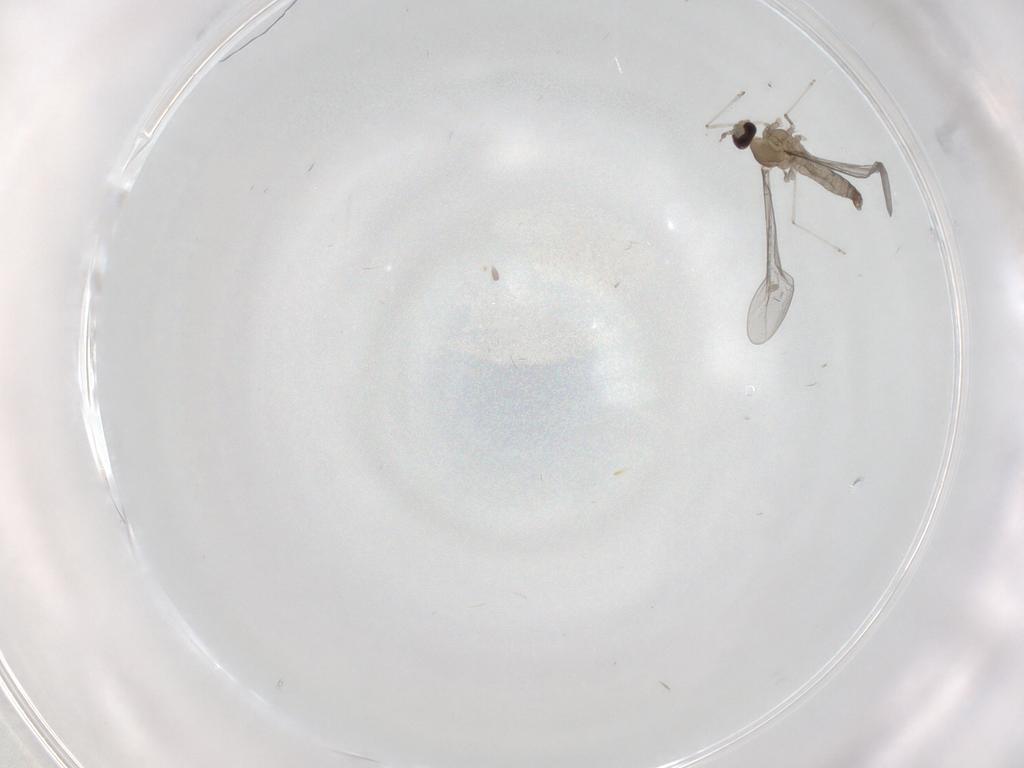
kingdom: Animalia
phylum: Arthropoda
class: Insecta
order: Diptera
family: Cecidomyiidae
